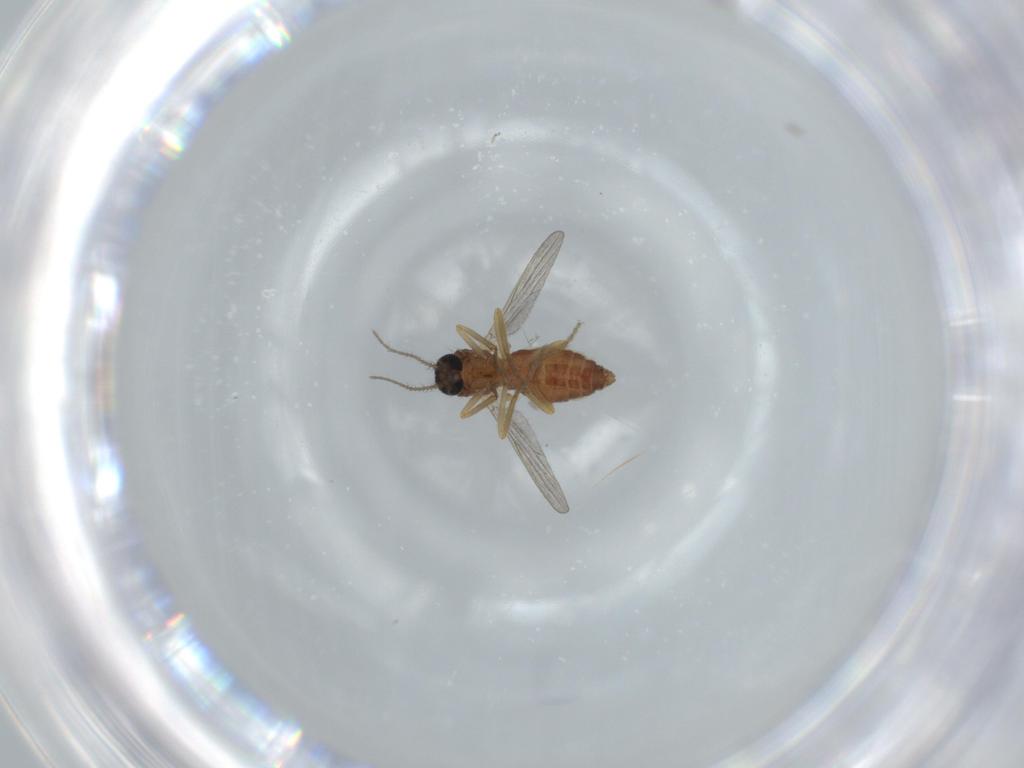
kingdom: Animalia
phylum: Arthropoda
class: Insecta
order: Diptera
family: Ceratopogonidae
